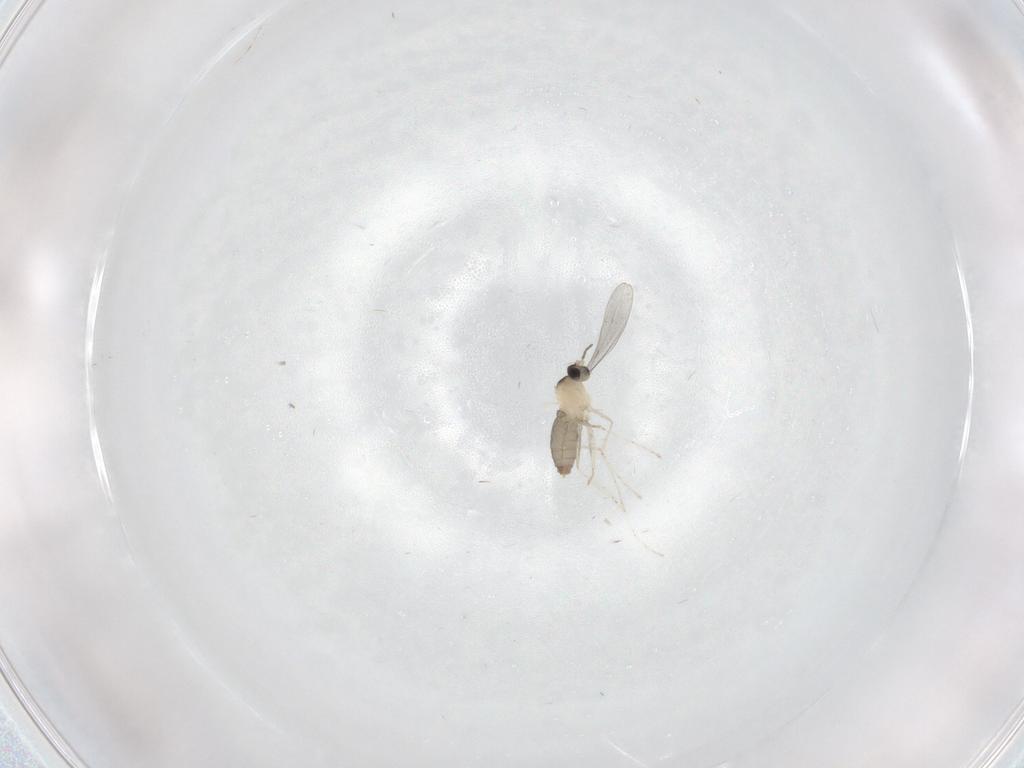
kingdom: Animalia
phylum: Arthropoda
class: Insecta
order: Diptera
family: Cecidomyiidae
